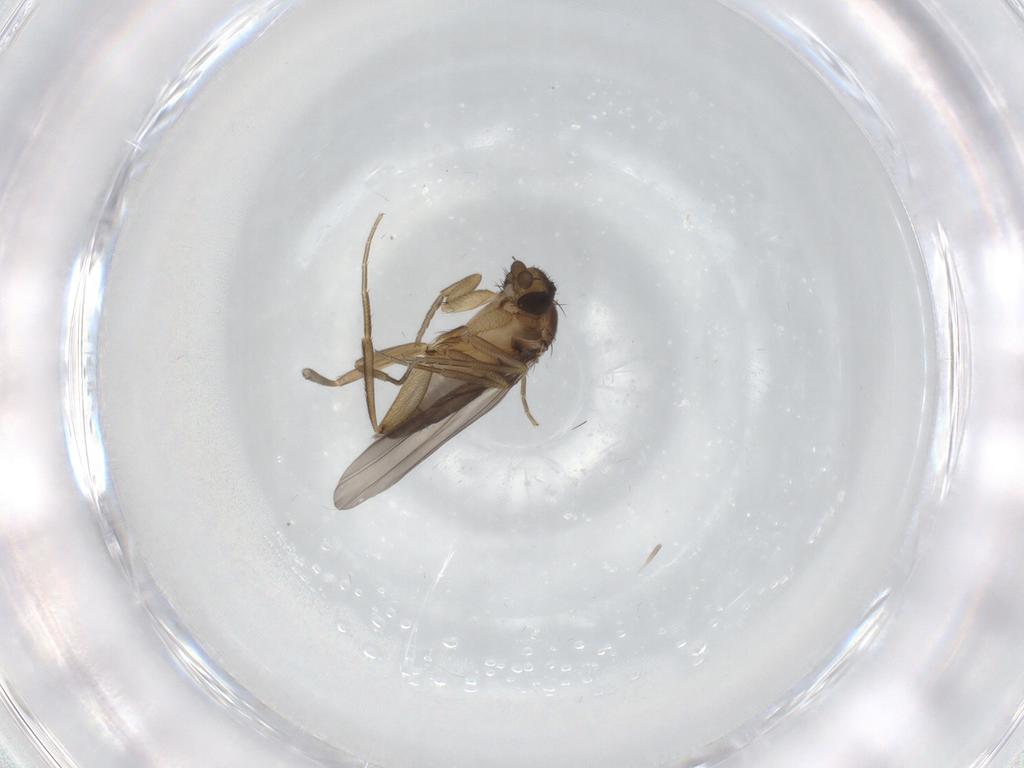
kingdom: Animalia
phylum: Arthropoda
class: Insecta
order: Diptera
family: Phoridae
